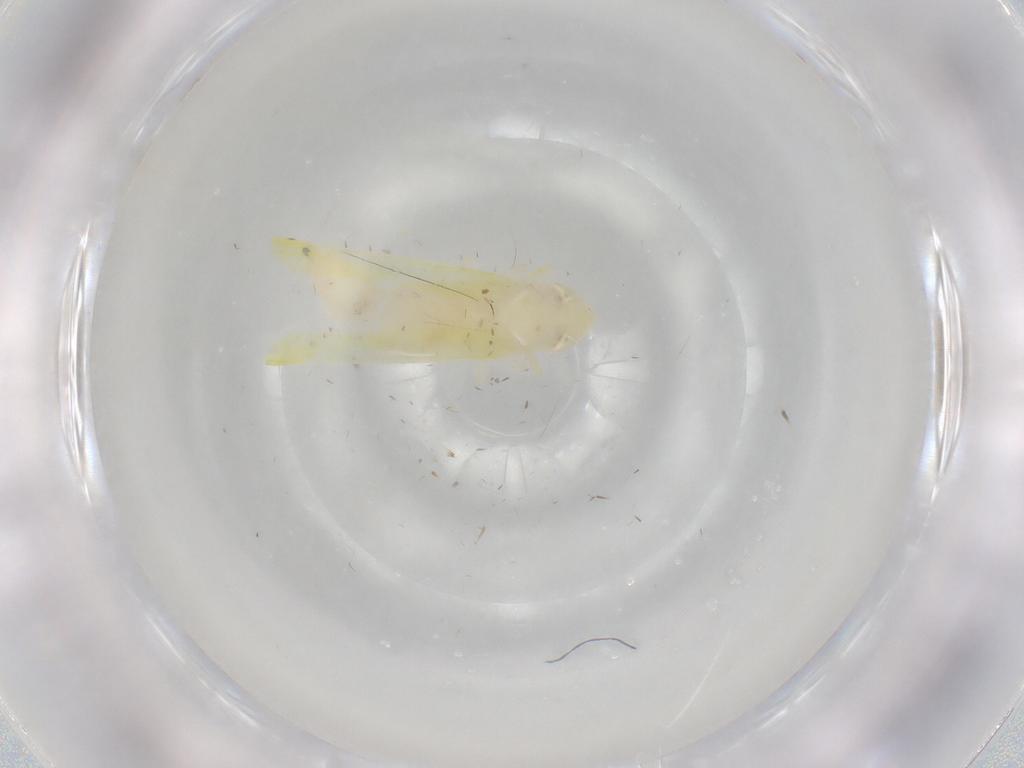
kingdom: Animalia
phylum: Arthropoda
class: Insecta
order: Hemiptera
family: Cicadellidae
